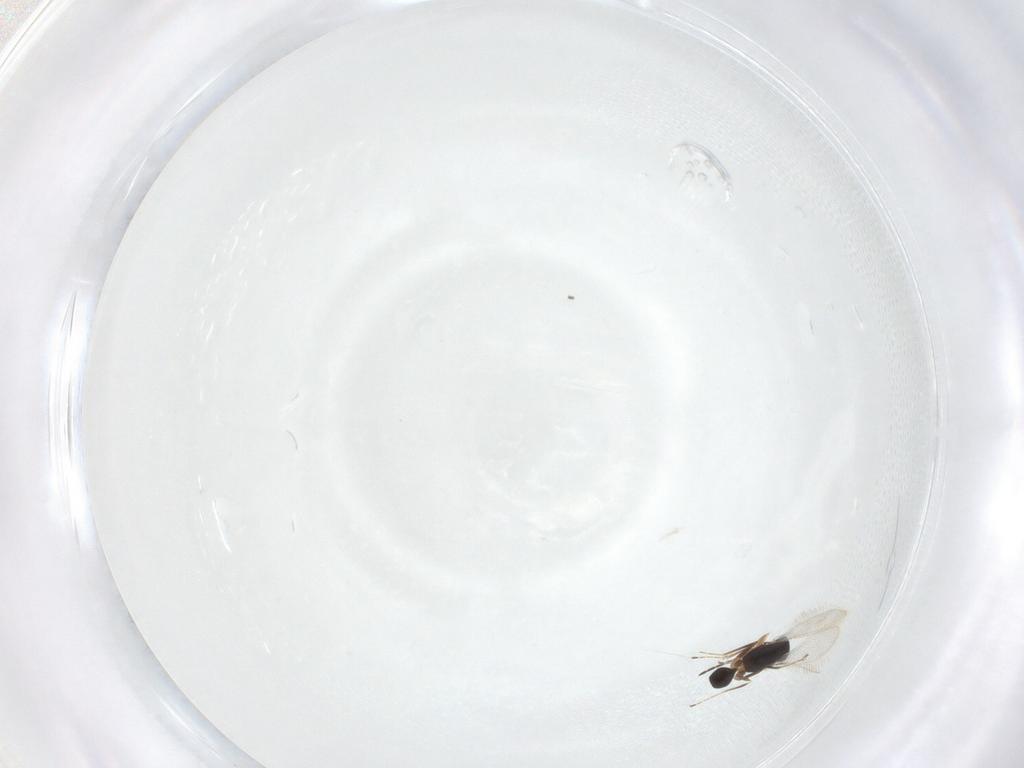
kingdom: Animalia
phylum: Arthropoda
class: Insecta
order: Hymenoptera
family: Mymaridae
